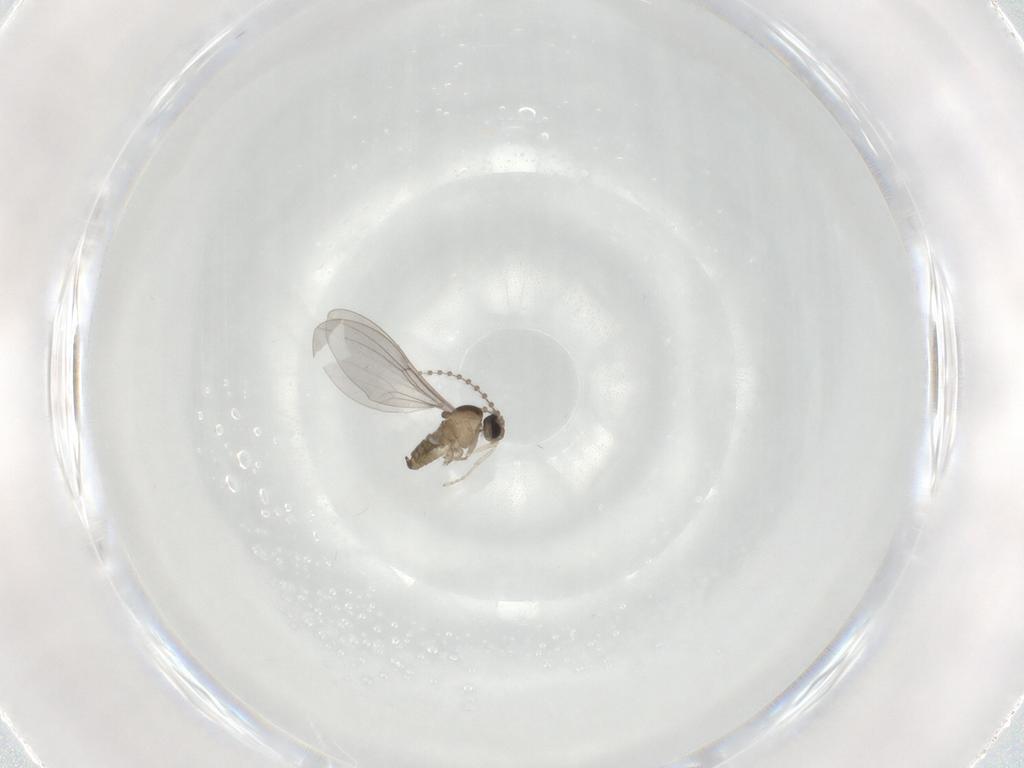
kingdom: Animalia
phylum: Arthropoda
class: Insecta
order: Diptera
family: Cecidomyiidae
